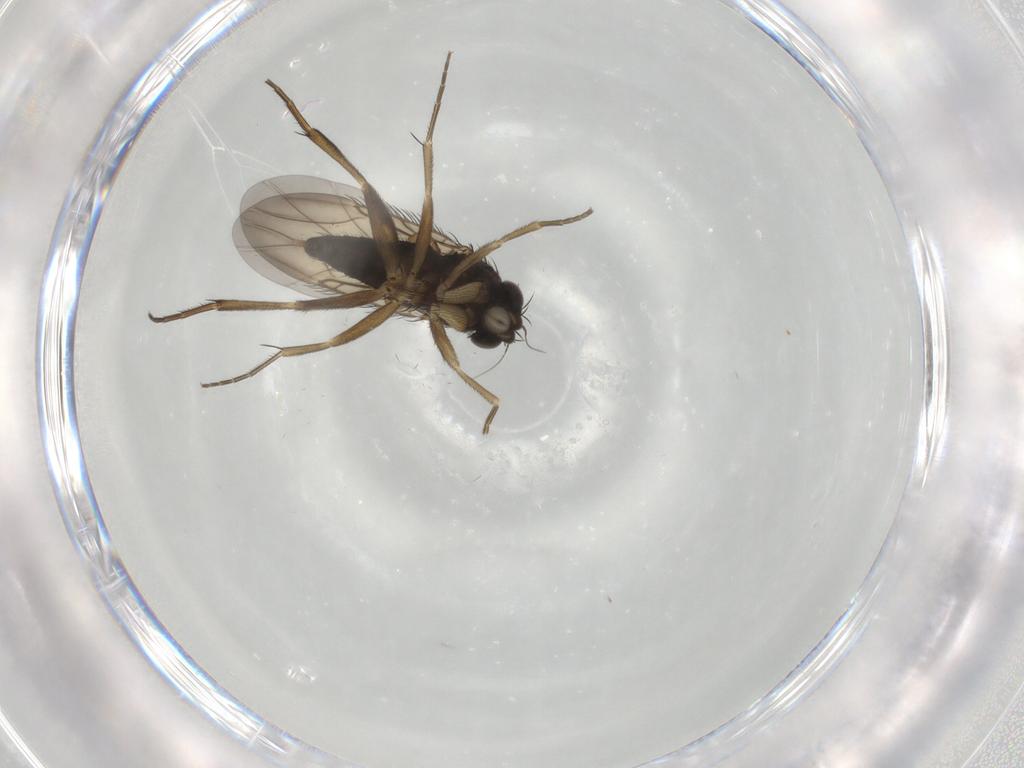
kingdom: Animalia
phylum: Arthropoda
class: Insecta
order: Diptera
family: Phoridae
